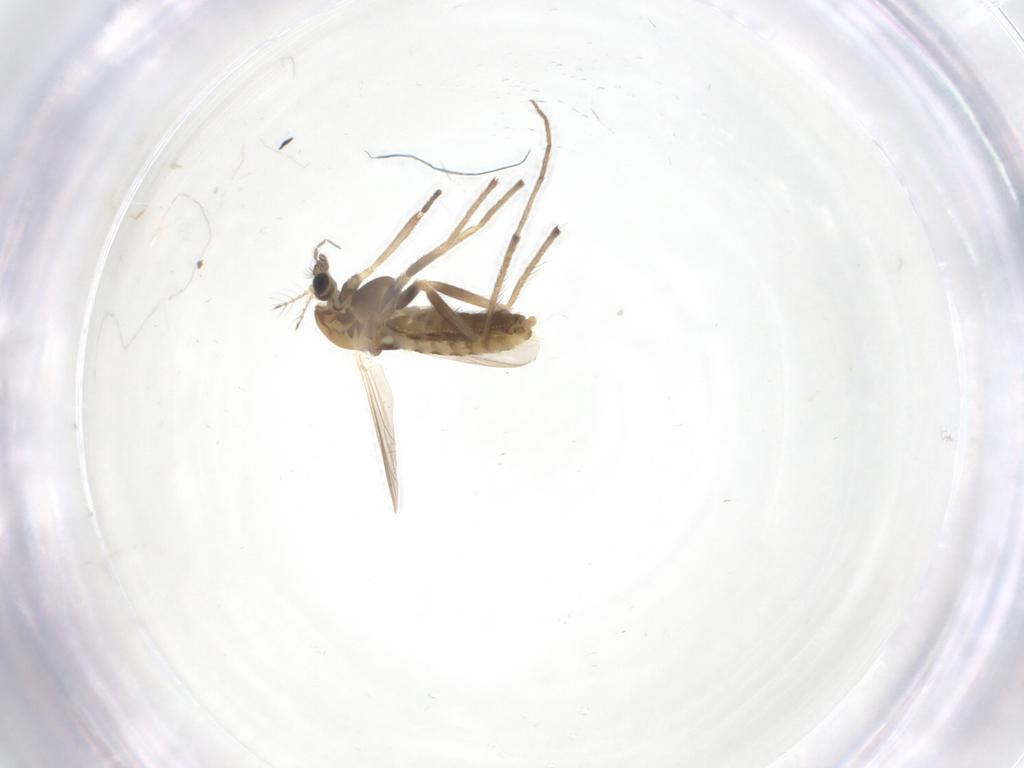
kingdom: Animalia
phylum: Arthropoda
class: Insecta
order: Diptera
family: Chironomidae
